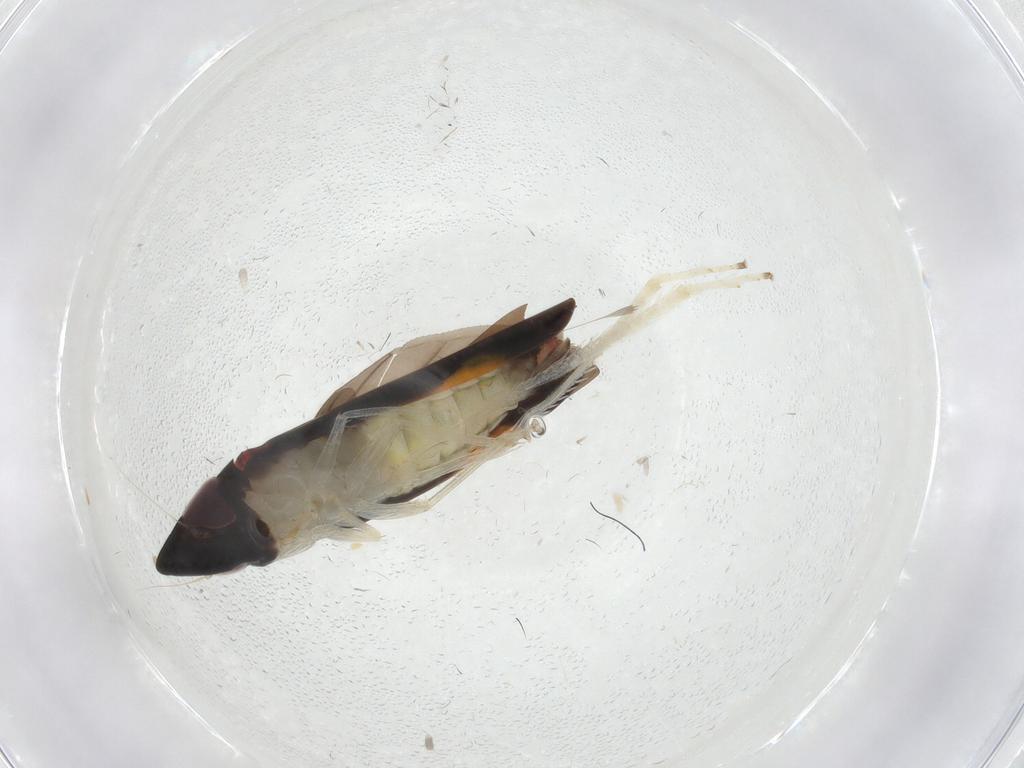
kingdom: Animalia
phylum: Arthropoda
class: Insecta
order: Hemiptera
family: Cicadellidae
